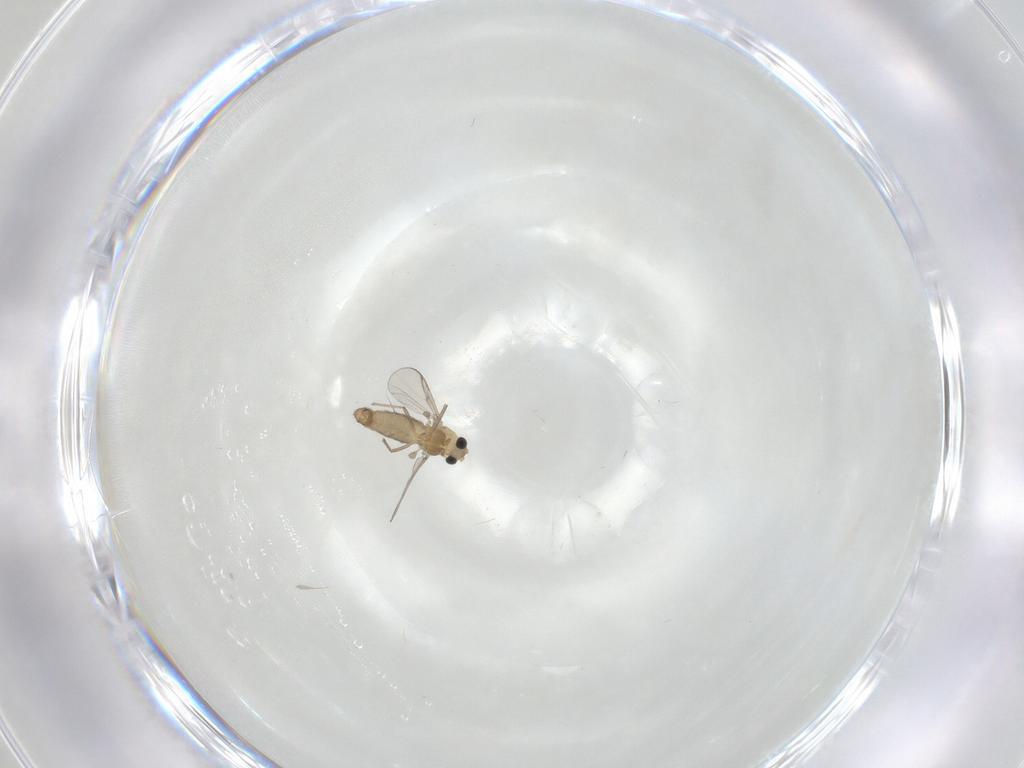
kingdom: Animalia
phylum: Arthropoda
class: Insecta
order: Diptera
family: Chironomidae
